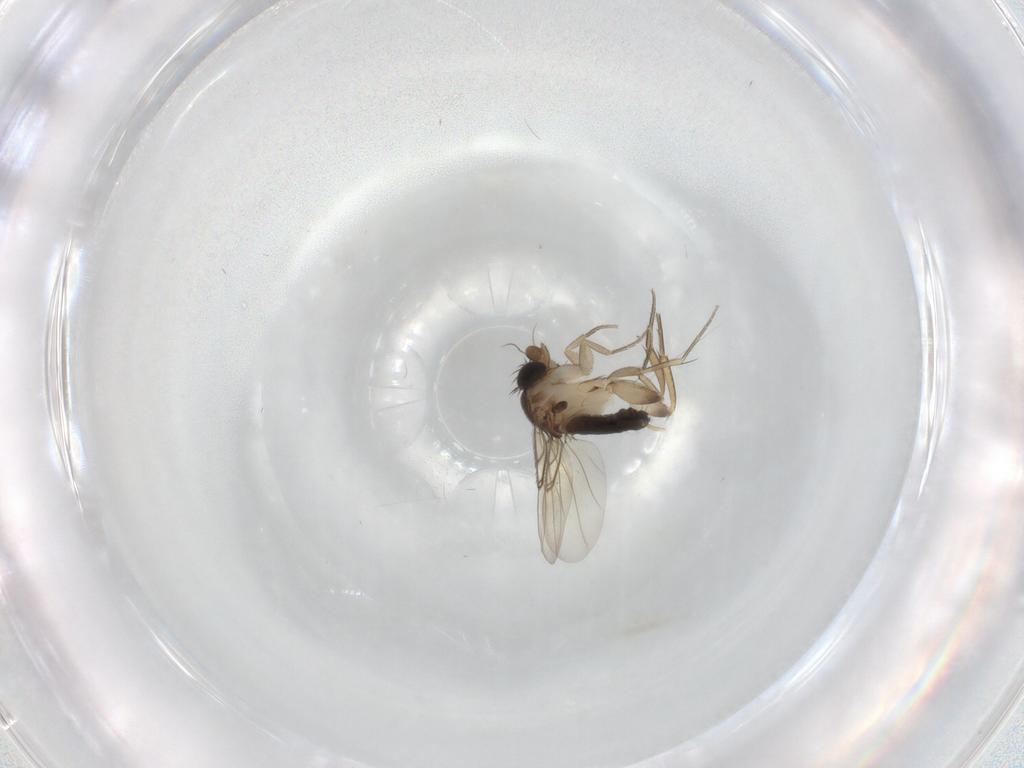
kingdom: Animalia
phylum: Arthropoda
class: Insecta
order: Diptera
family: Phoridae
